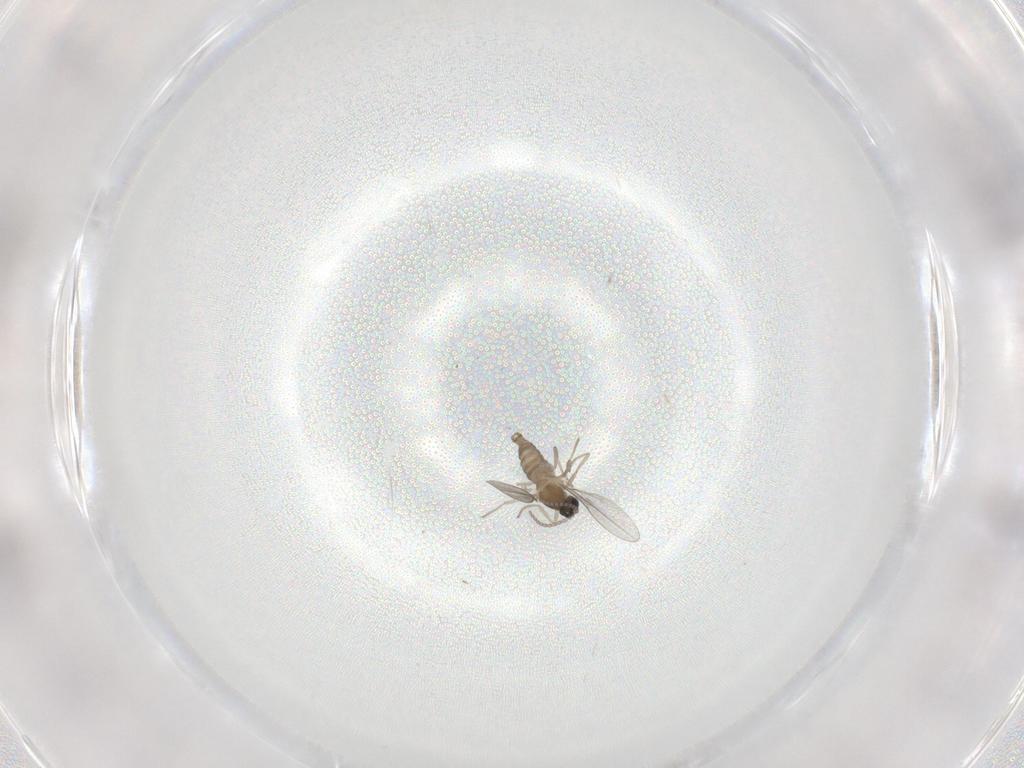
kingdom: Animalia
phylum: Arthropoda
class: Insecta
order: Diptera
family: Cecidomyiidae
